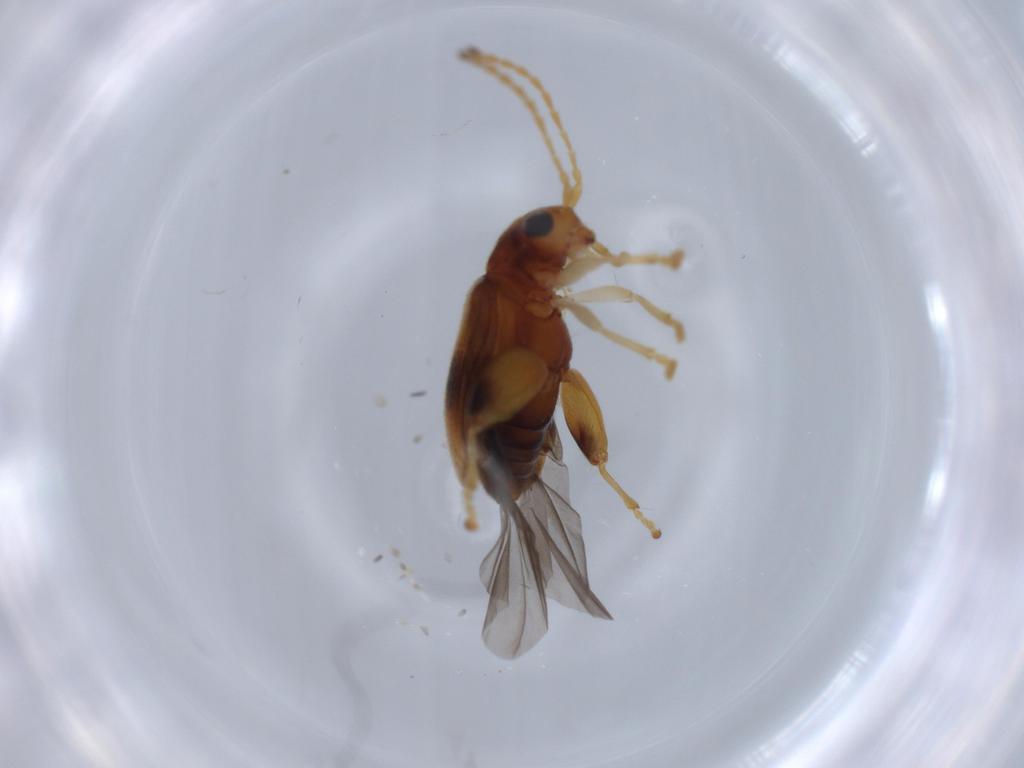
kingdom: Animalia
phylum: Arthropoda
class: Insecta
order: Coleoptera
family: Chrysomelidae
